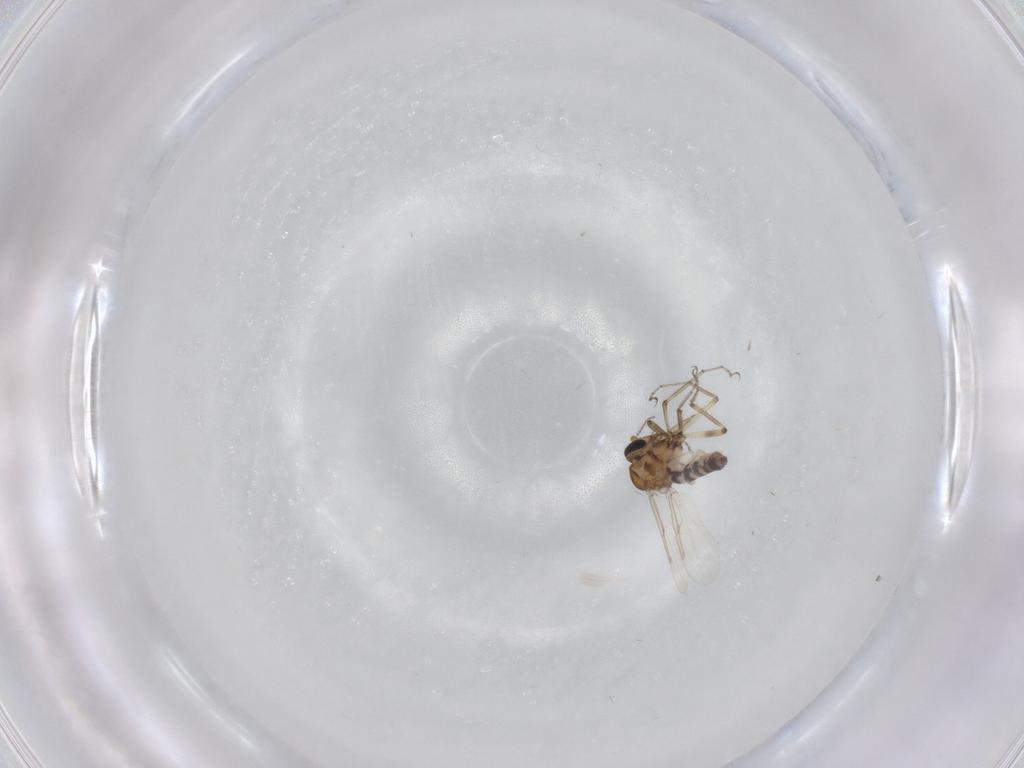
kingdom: Animalia
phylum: Arthropoda
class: Insecta
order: Diptera
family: Ceratopogonidae
